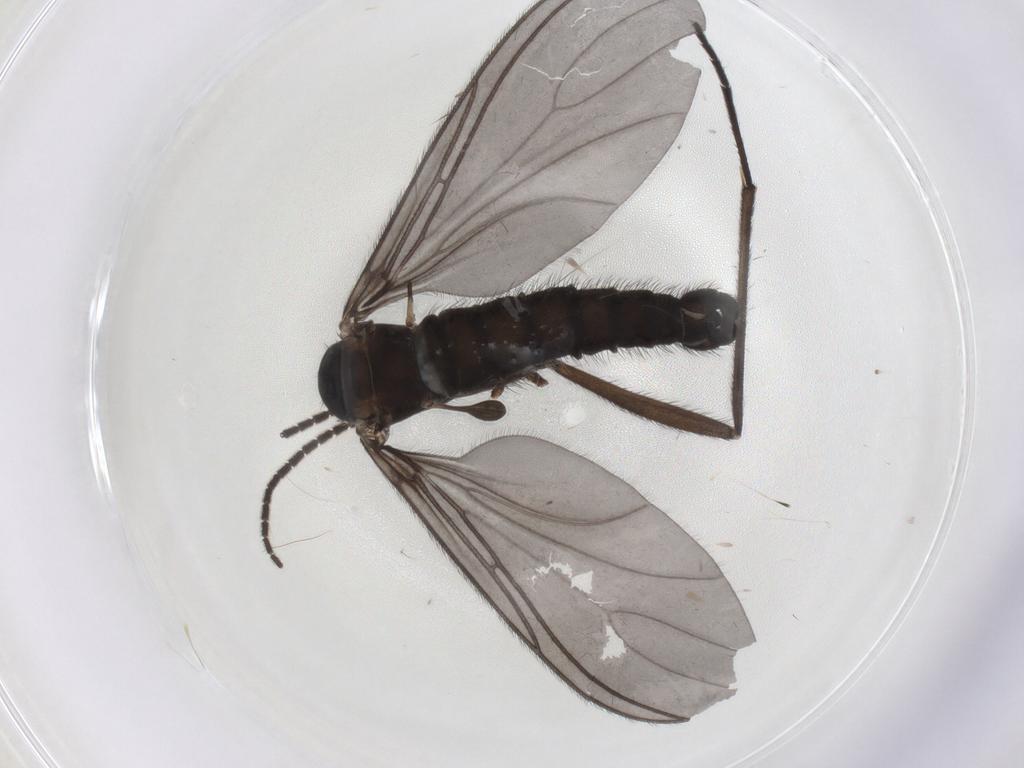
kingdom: Animalia
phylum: Arthropoda
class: Insecta
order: Diptera
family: Sciaridae
